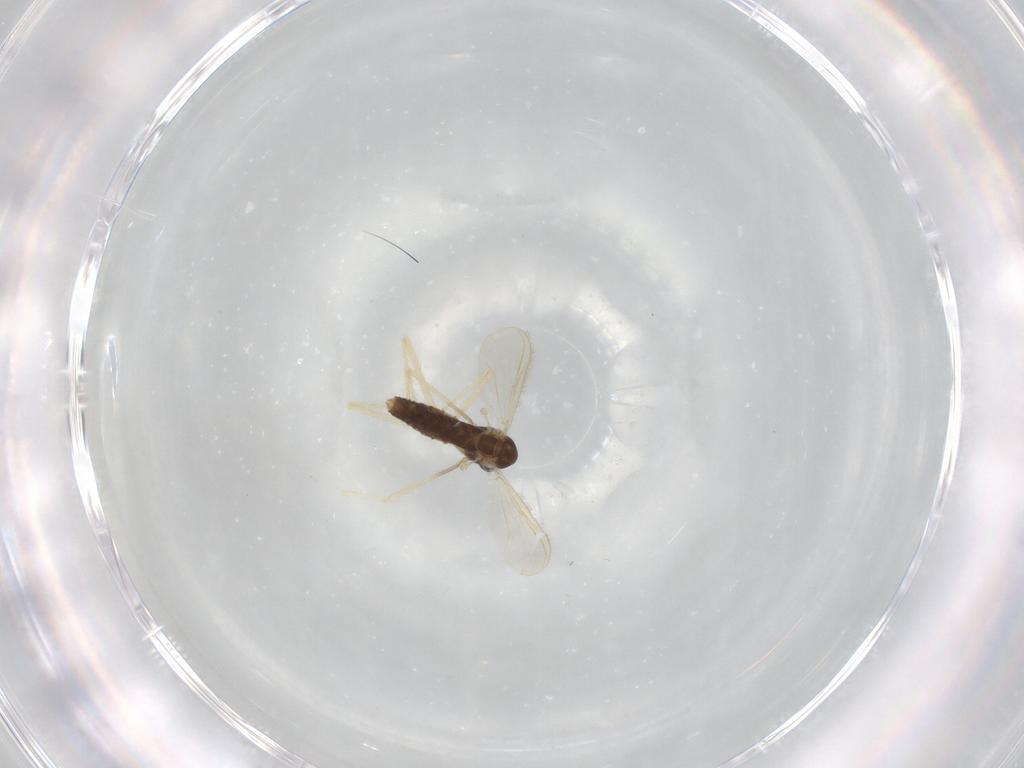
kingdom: Animalia
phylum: Arthropoda
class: Insecta
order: Diptera
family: Chironomidae
